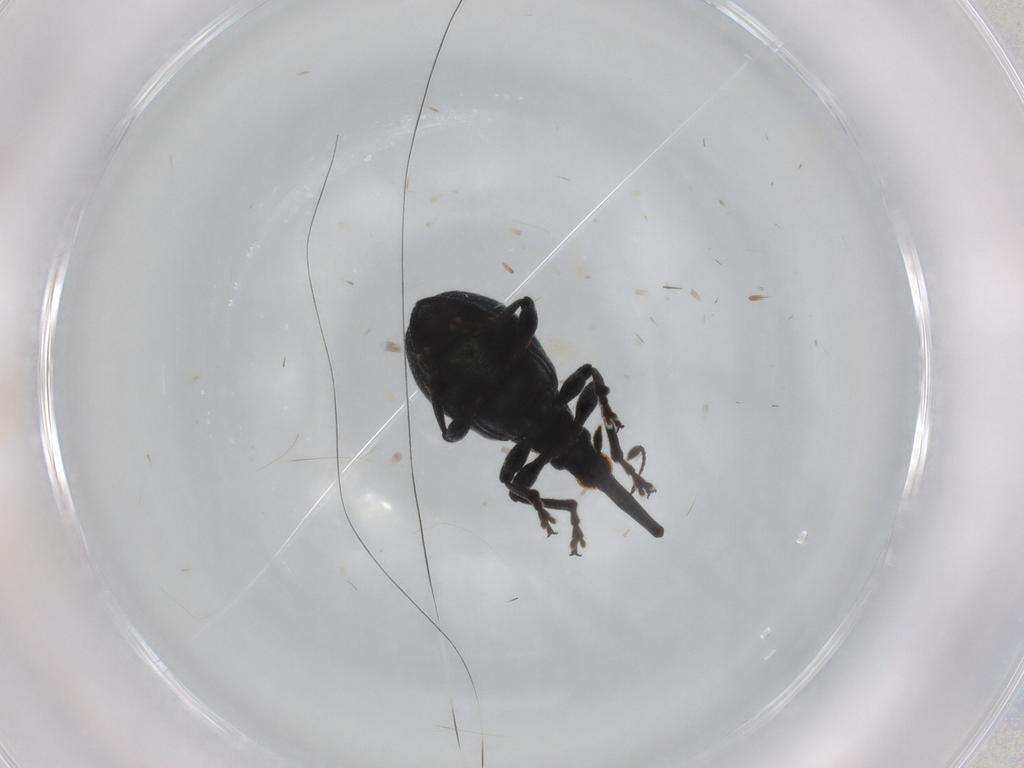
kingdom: Animalia
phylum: Arthropoda
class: Insecta
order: Coleoptera
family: Brentidae
